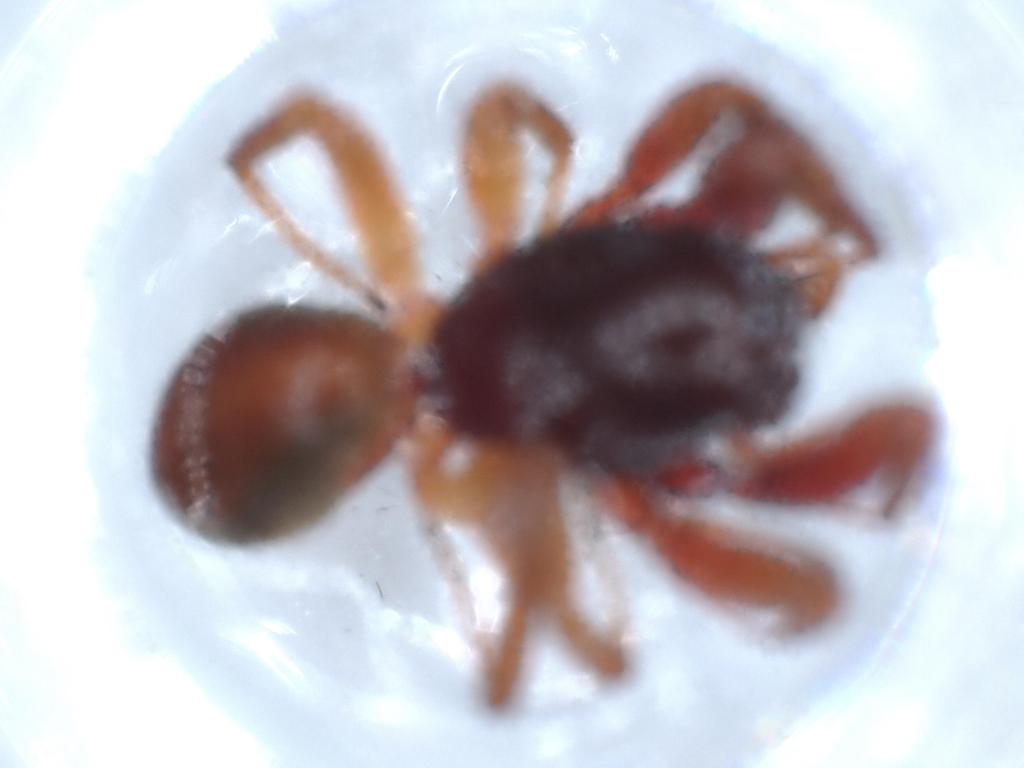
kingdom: Animalia
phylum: Arthropoda
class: Arachnida
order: Araneae
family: Trachelidae
